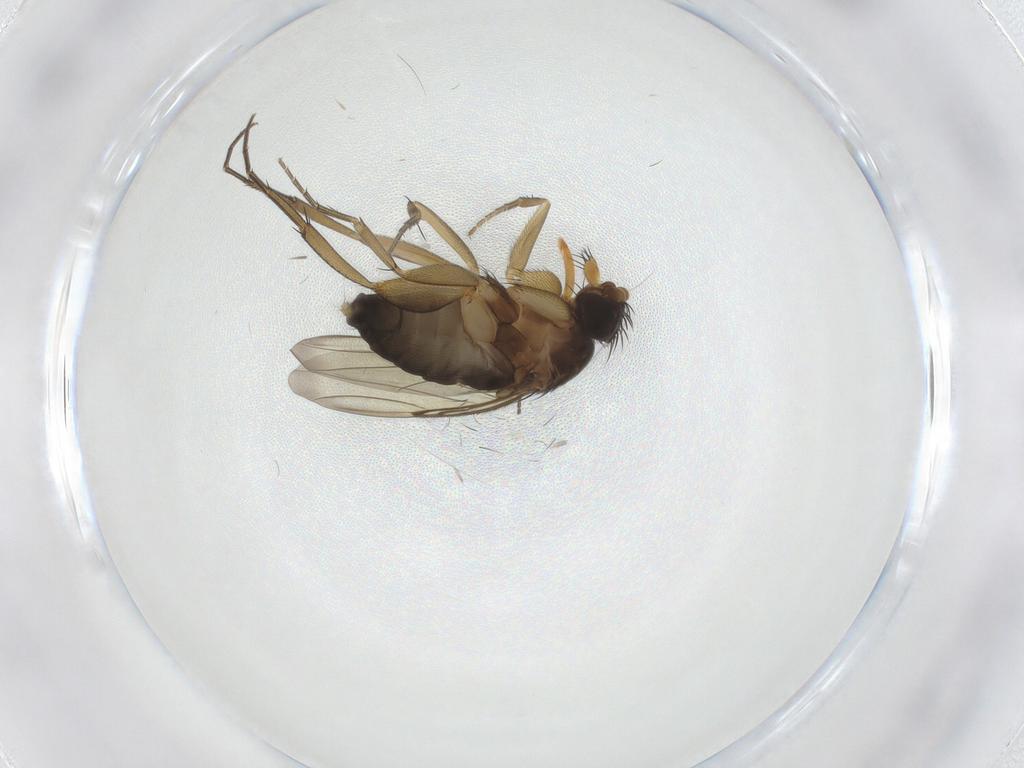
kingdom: Animalia
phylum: Arthropoda
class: Insecta
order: Diptera
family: Phoridae
